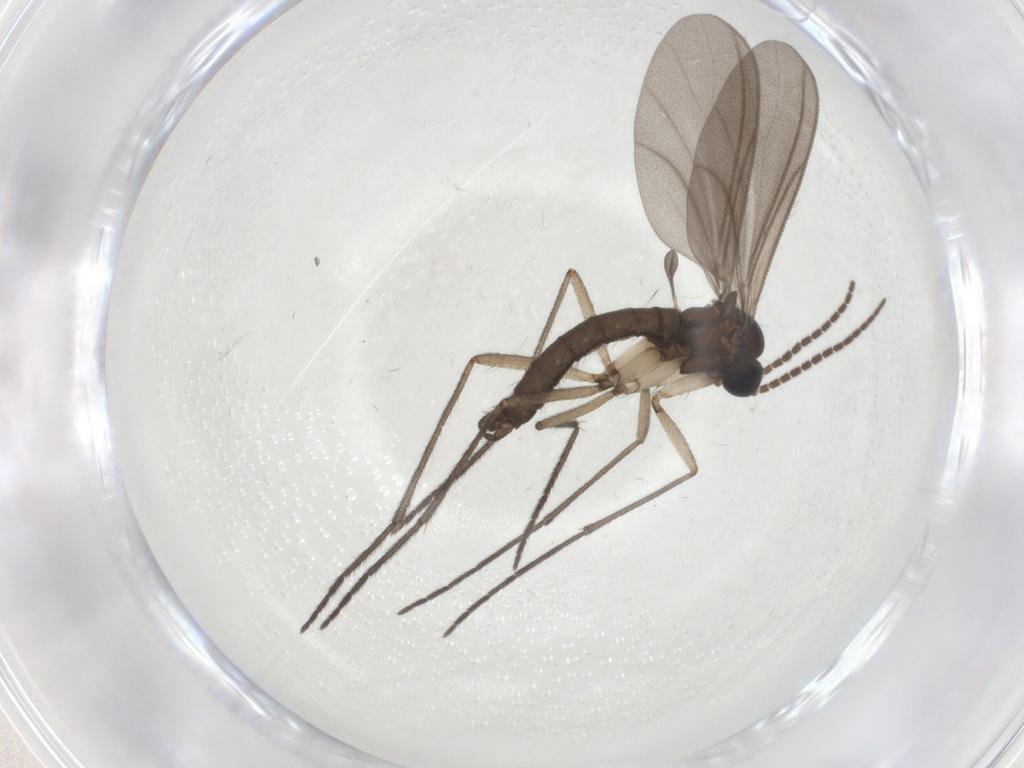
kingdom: Animalia
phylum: Arthropoda
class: Insecta
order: Diptera
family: Sciaridae
